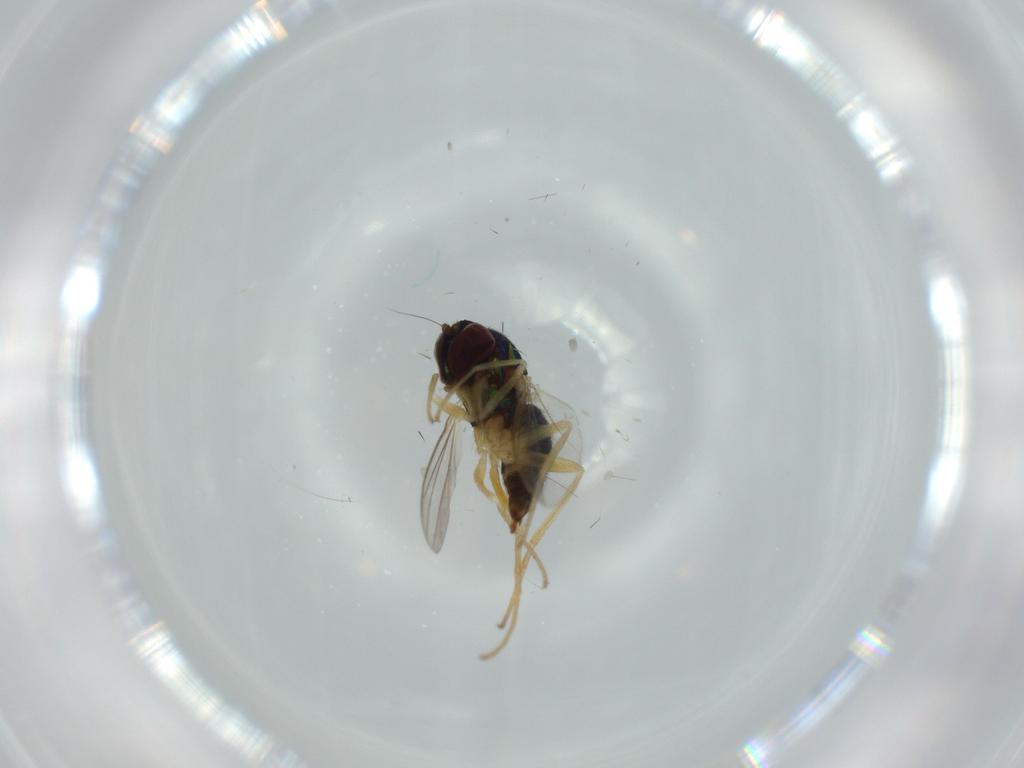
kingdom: Animalia
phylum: Arthropoda
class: Insecta
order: Diptera
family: Dolichopodidae
